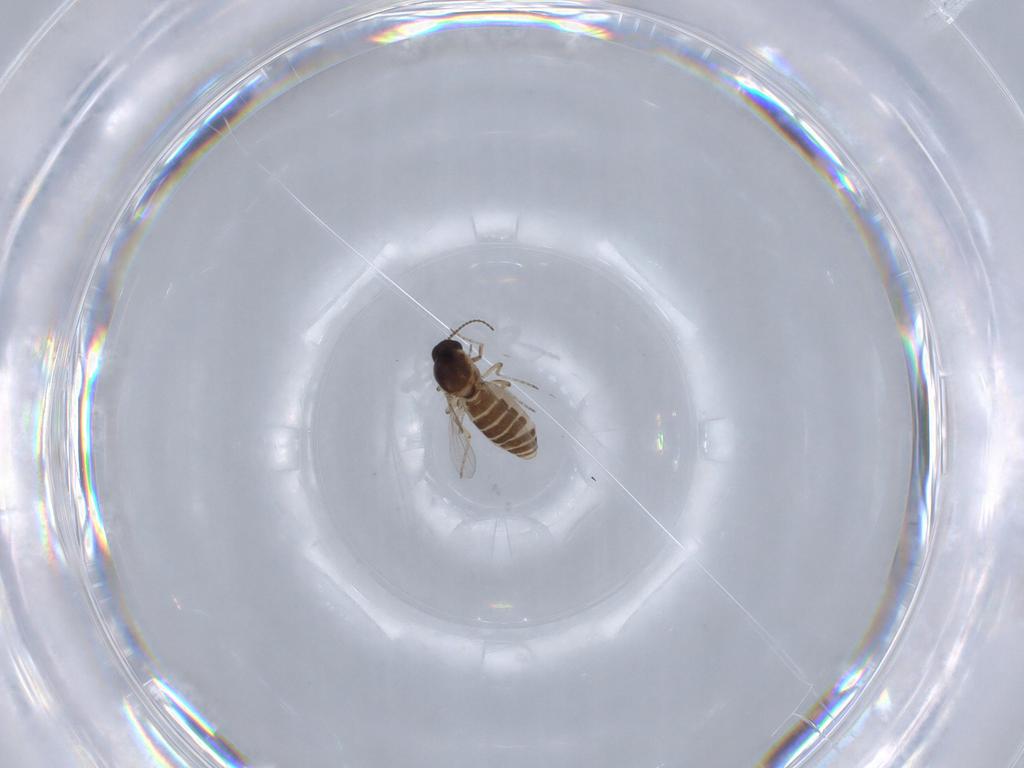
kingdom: Animalia
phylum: Arthropoda
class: Insecta
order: Diptera
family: Ceratopogonidae
